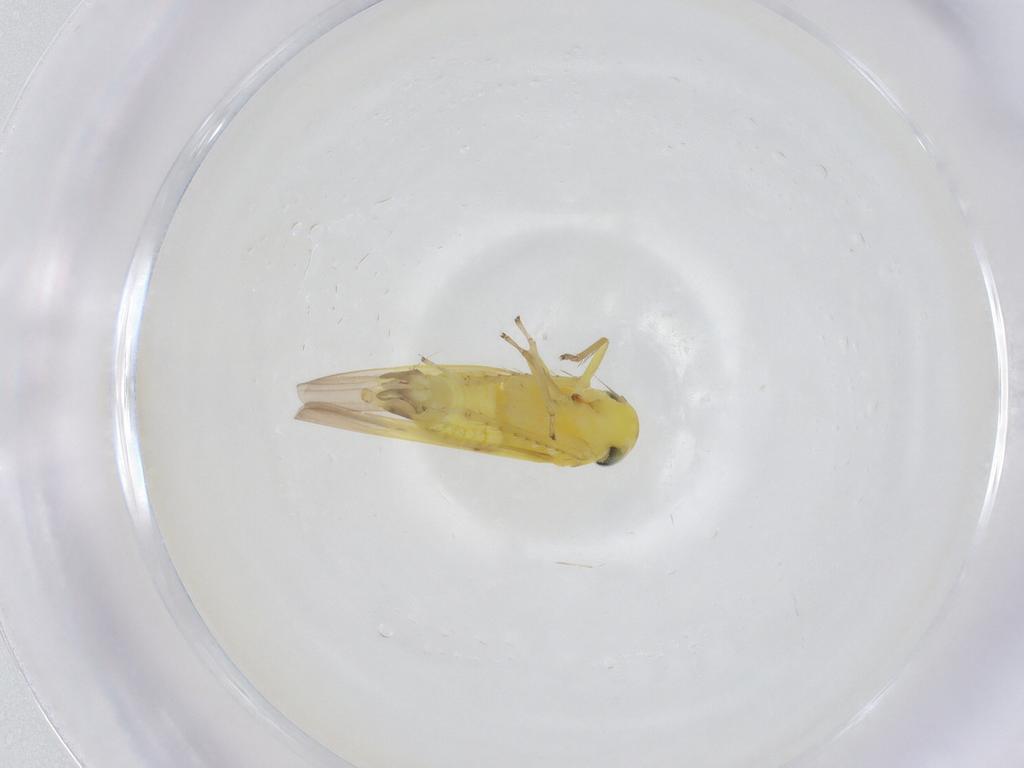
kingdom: Animalia
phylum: Arthropoda
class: Insecta
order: Hemiptera
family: Cicadellidae
